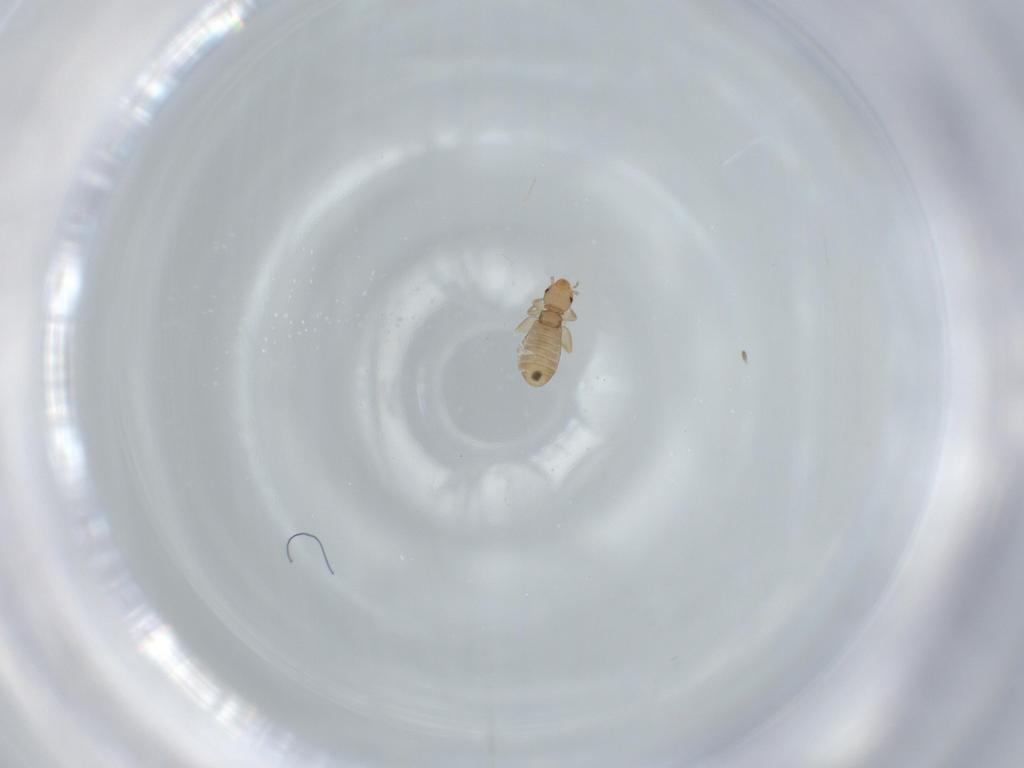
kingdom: Animalia
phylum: Arthropoda
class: Insecta
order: Psocodea
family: Liposcelididae
